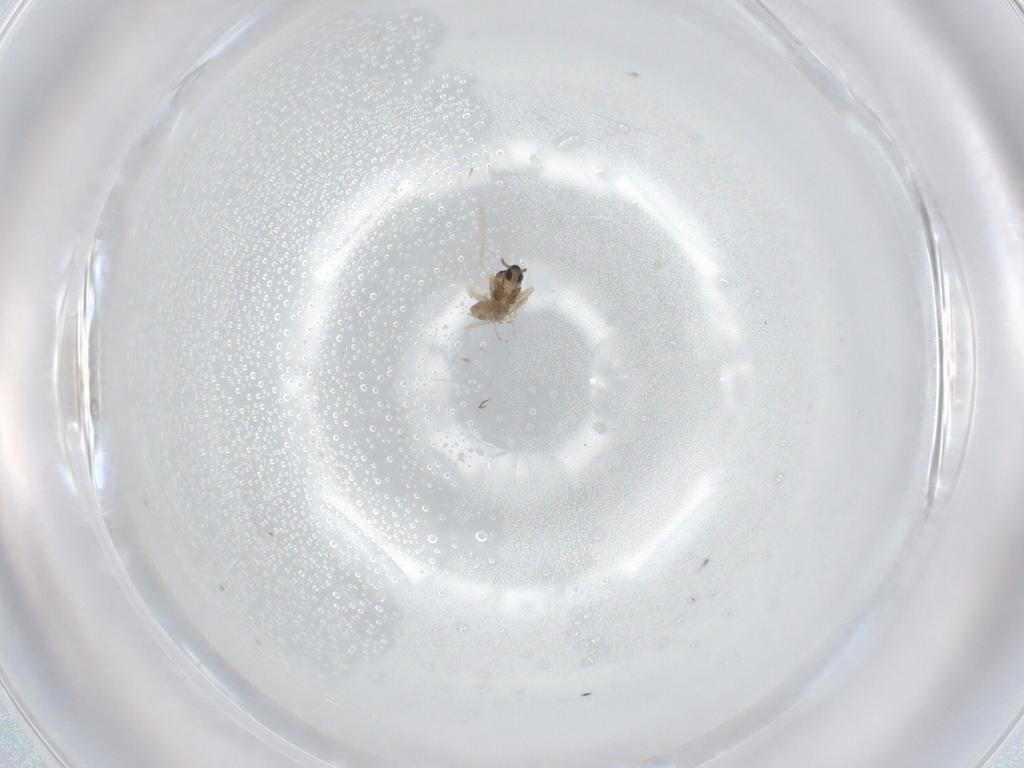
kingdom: Animalia
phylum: Arthropoda
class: Insecta
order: Diptera
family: Cecidomyiidae
